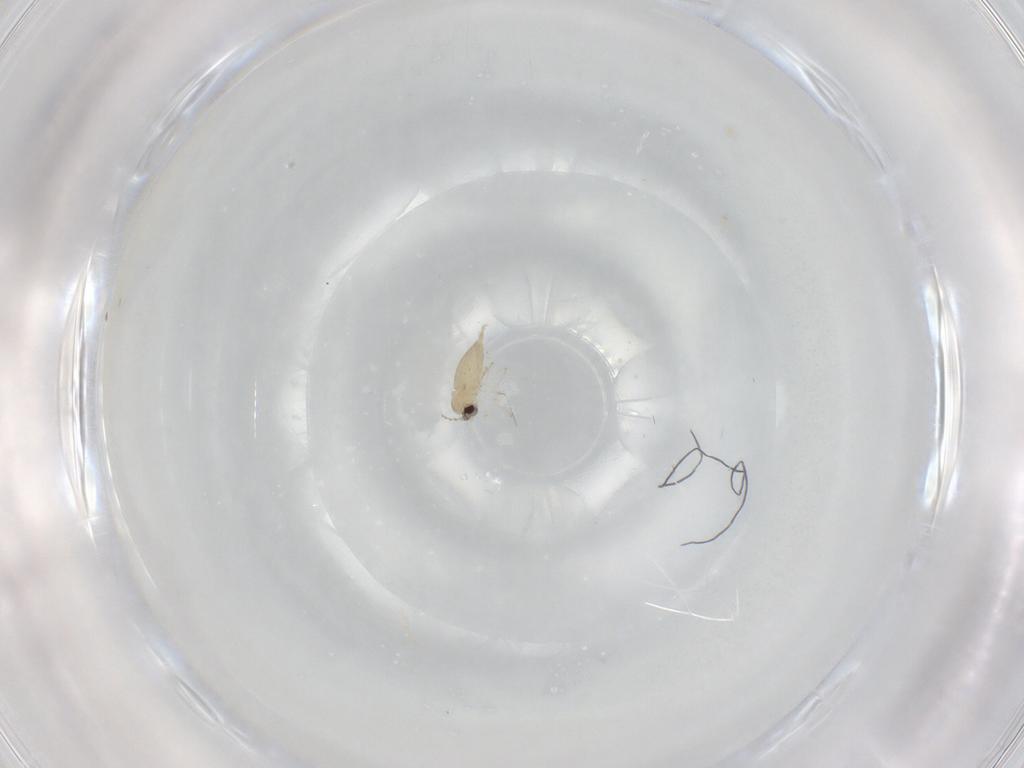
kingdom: Animalia
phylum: Arthropoda
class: Insecta
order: Diptera
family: Cecidomyiidae
